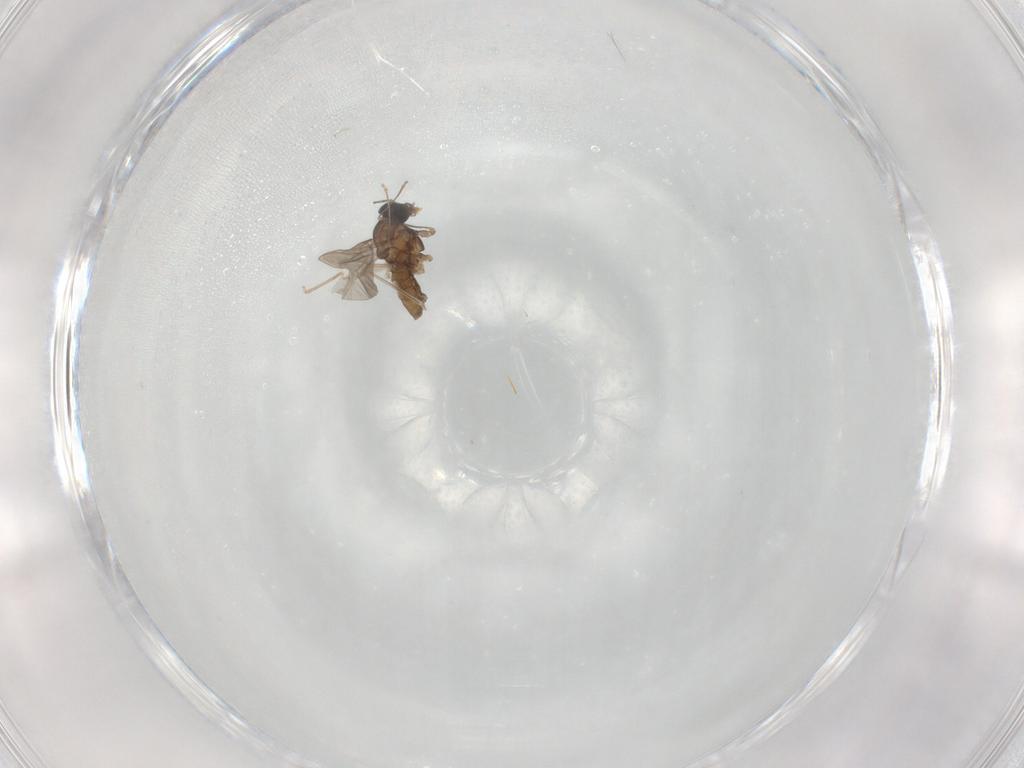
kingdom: Animalia
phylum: Arthropoda
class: Insecta
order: Diptera
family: Cecidomyiidae
